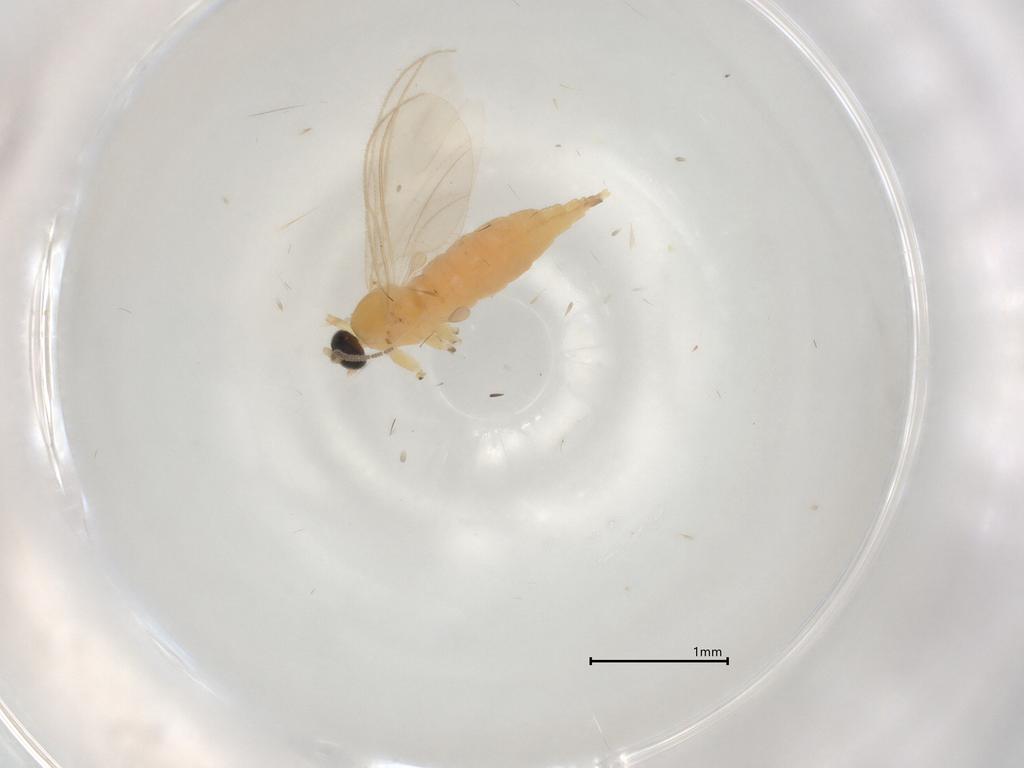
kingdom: Animalia
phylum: Arthropoda
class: Insecta
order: Diptera
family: Sciaridae
